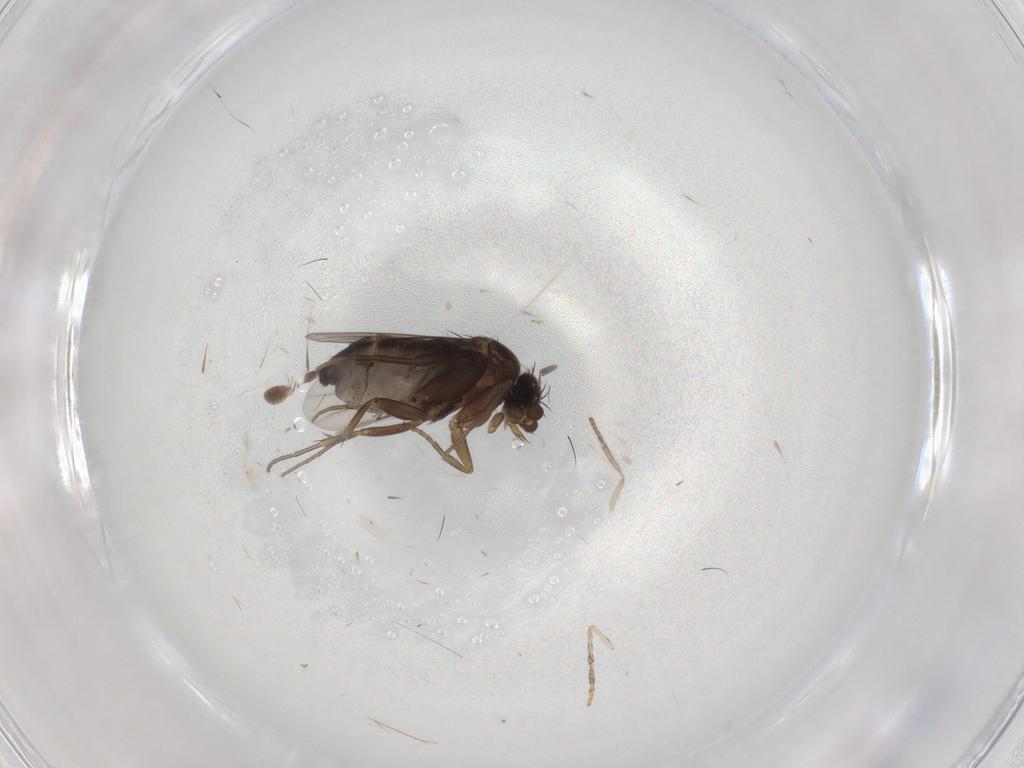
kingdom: Animalia
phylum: Arthropoda
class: Insecta
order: Diptera
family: Phoridae
